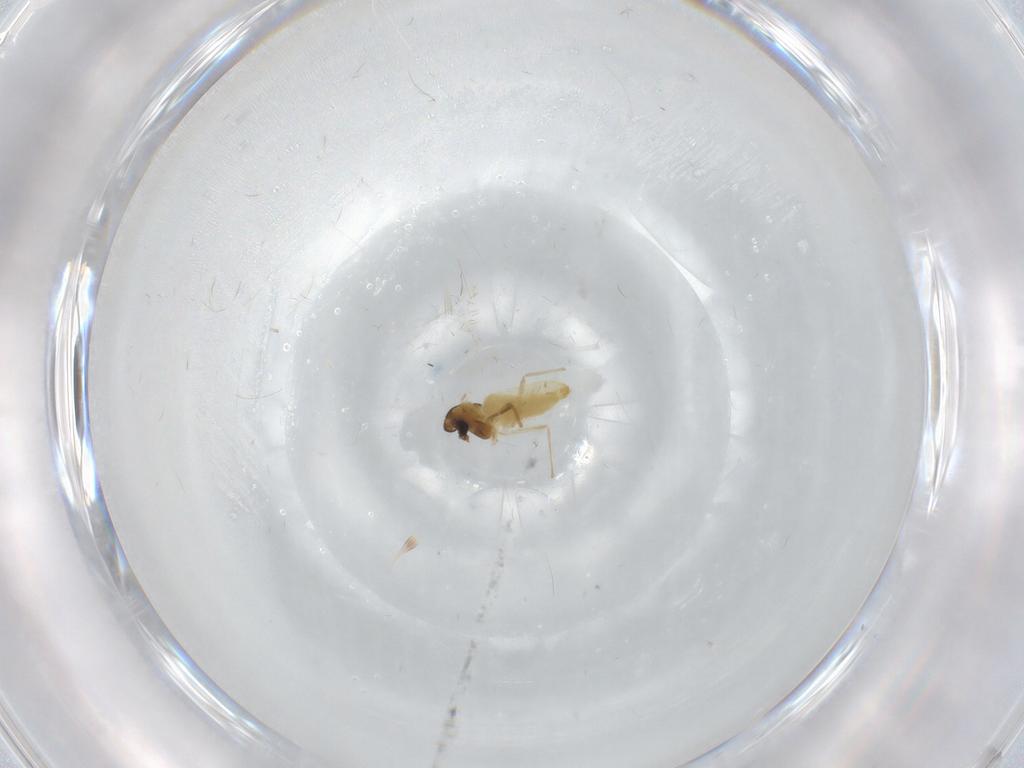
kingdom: Animalia
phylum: Arthropoda
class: Insecta
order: Diptera
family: Chironomidae
